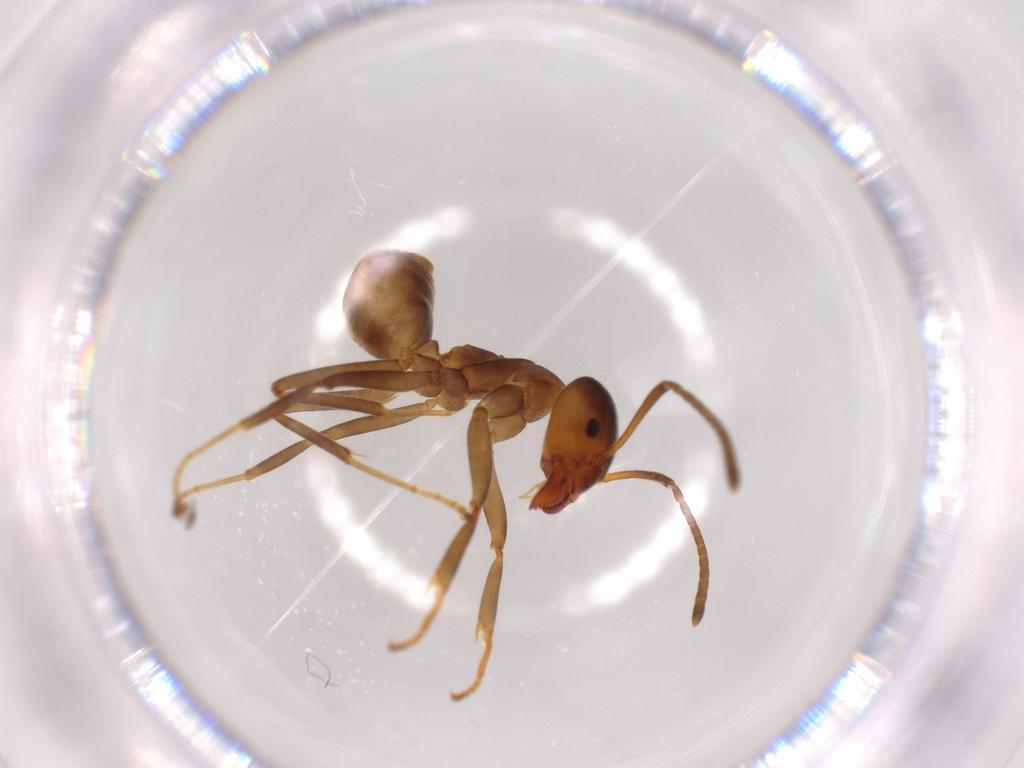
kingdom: Animalia
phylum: Arthropoda
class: Insecta
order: Hymenoptera
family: Formicidae
